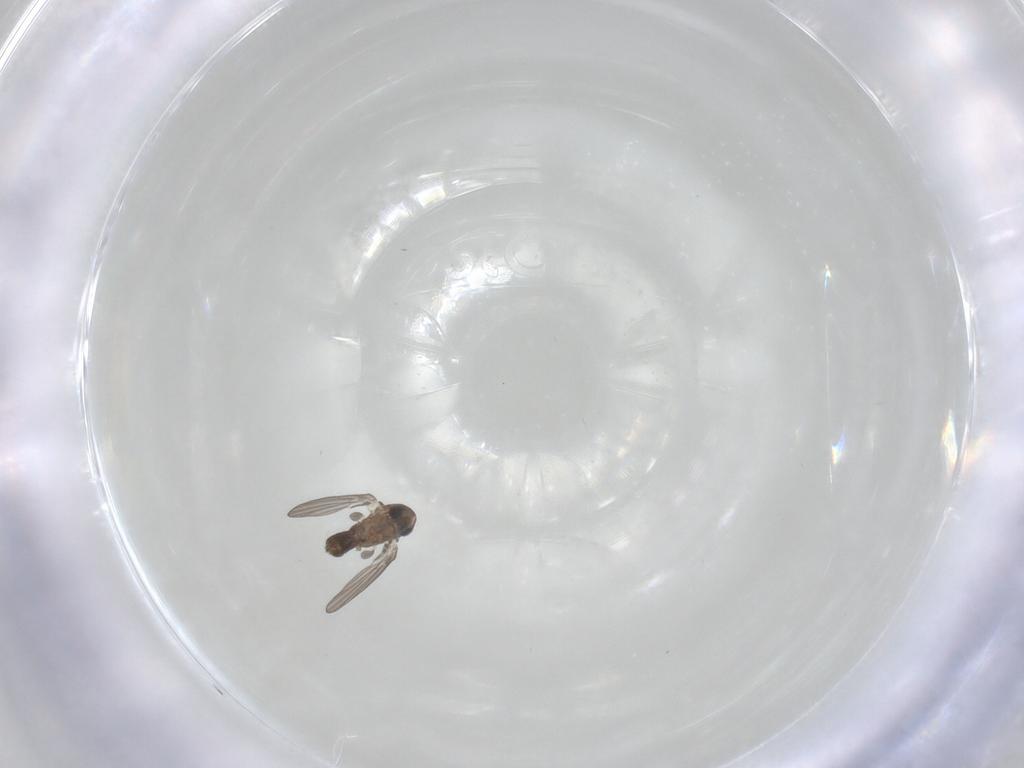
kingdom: Animalia
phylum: Arthropoda
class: Insecta
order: Diptera
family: Psychodidae
